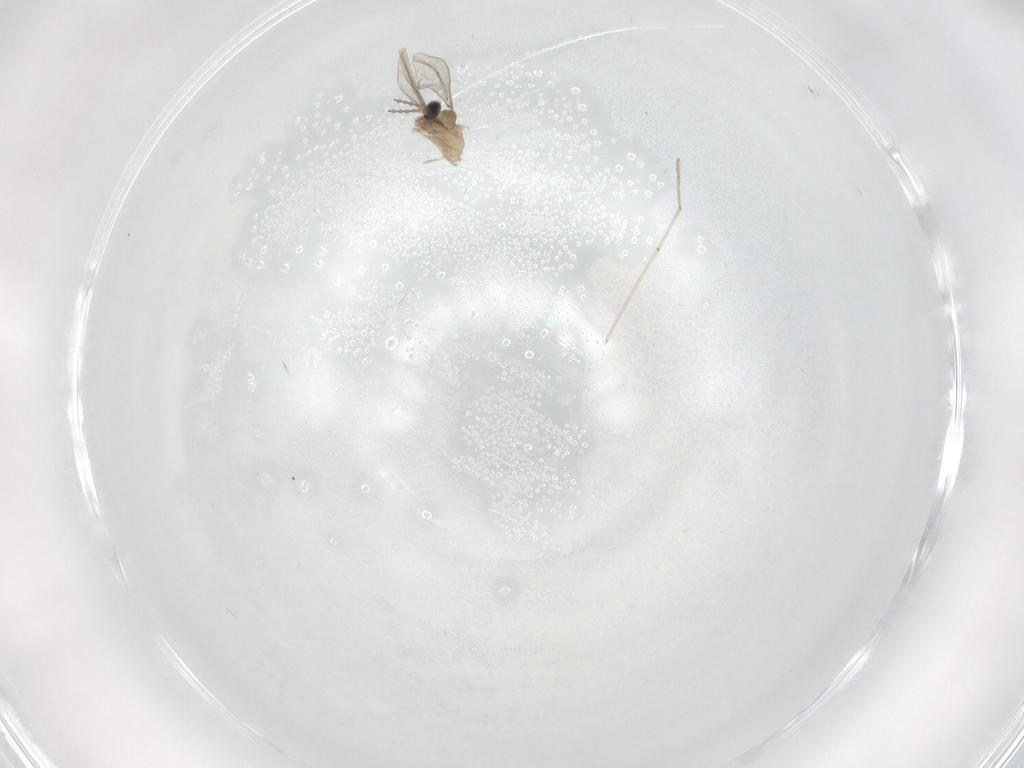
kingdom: Animalia
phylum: Arthropoda
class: Insecta
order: Diptera
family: Cecidomyiidae
